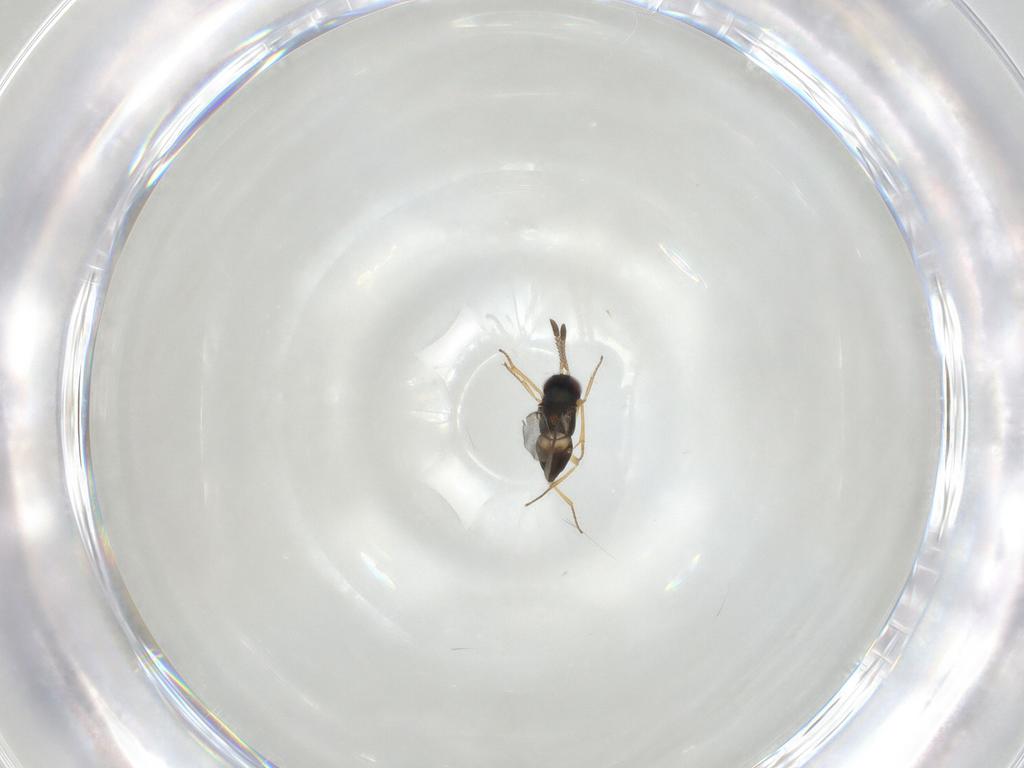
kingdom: Animalia
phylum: Arthropoda
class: Insecta
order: Hymenoptera
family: Encyrtidae
